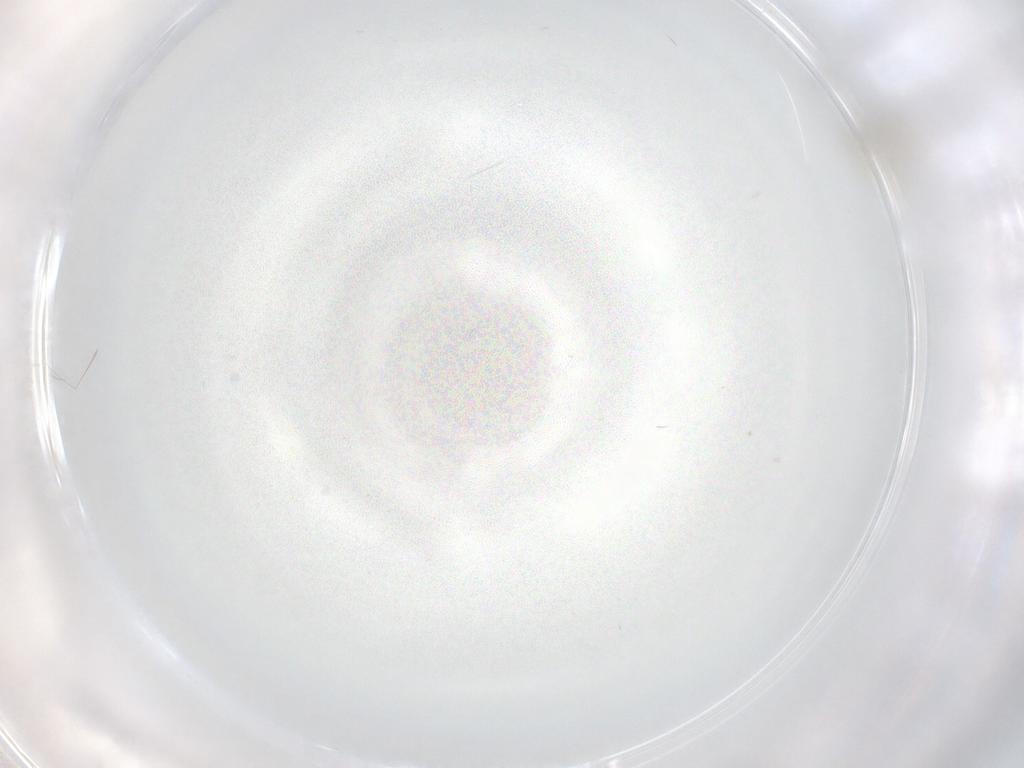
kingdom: Animalia
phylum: Arthropoda
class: Insecta
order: Diptera
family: Cecidomyiidae
